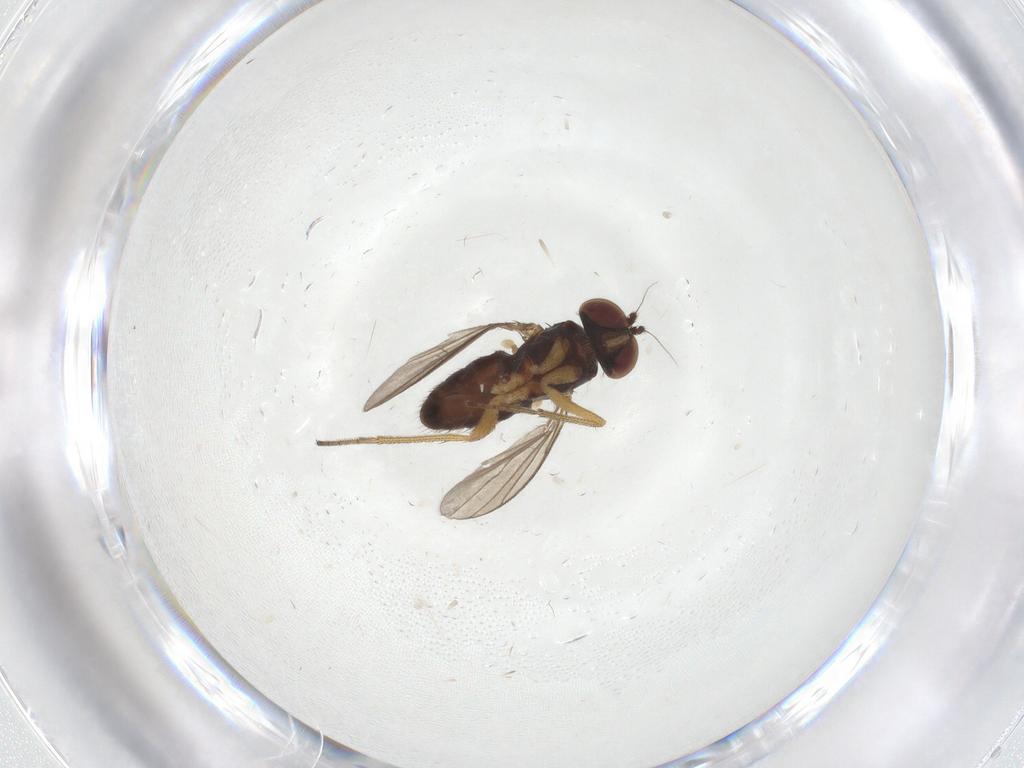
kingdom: Animalia
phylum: Arthropoda
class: Insecta
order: Diptera
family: Dolichopodidae
